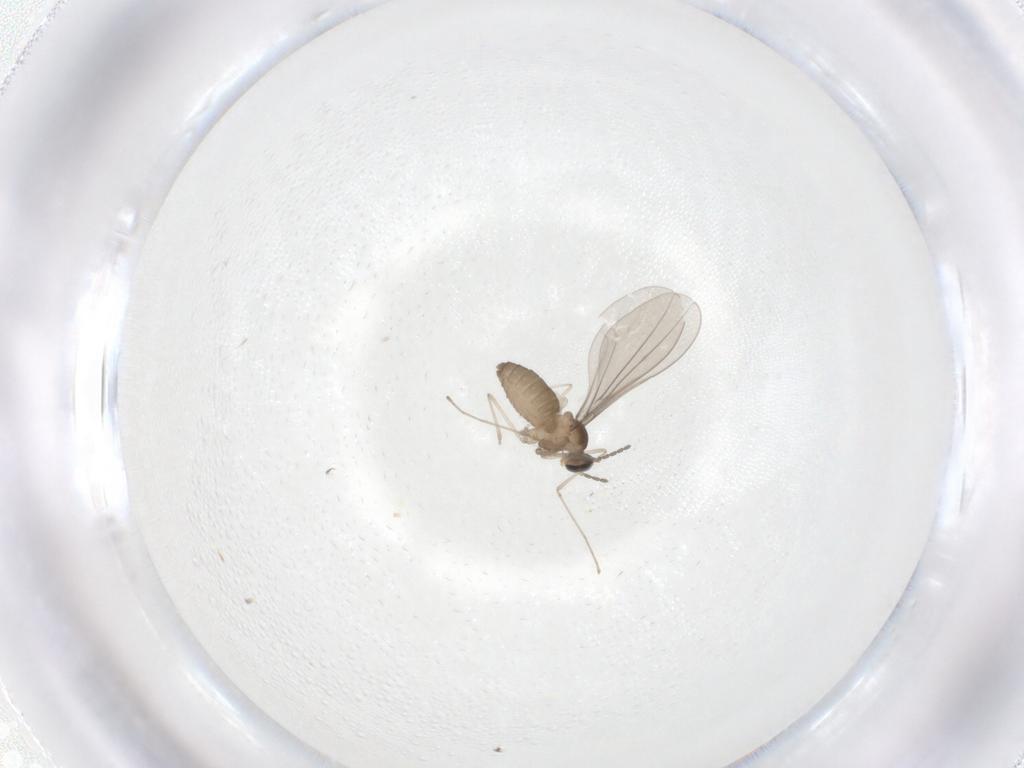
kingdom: Animalia
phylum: Arthropoda
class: Insecta
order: Diptera
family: Cecidomyiidae
